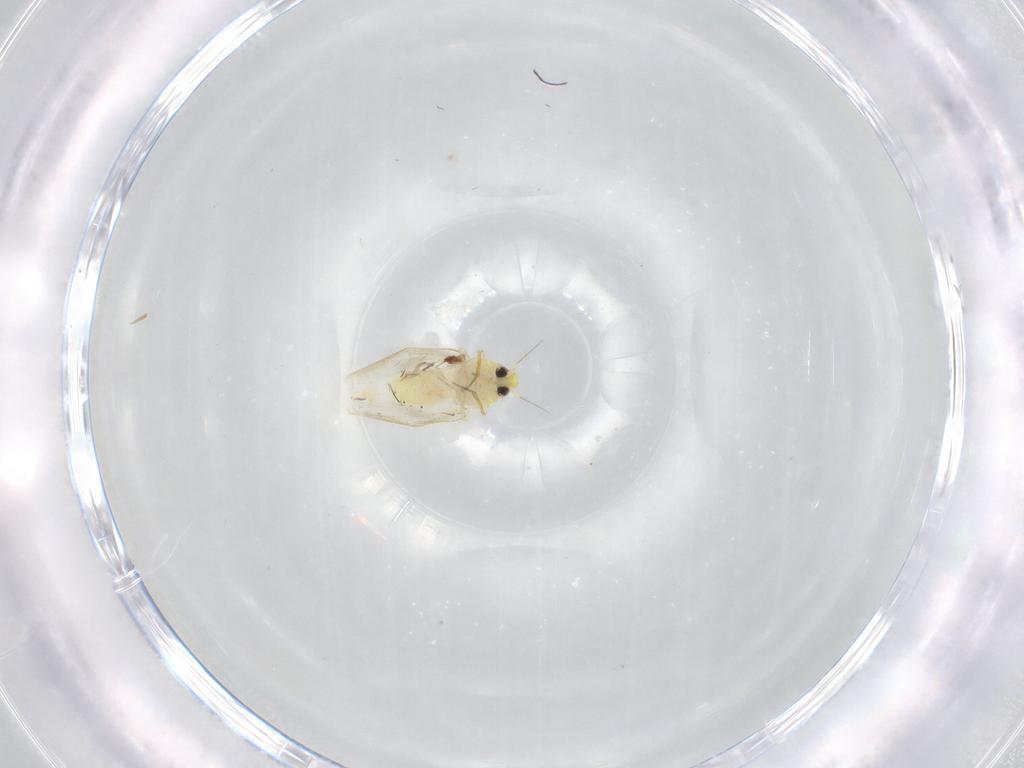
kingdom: Animalia
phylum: Arthropoda
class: Insecta
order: Hemiptera
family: Aleyrodidae
